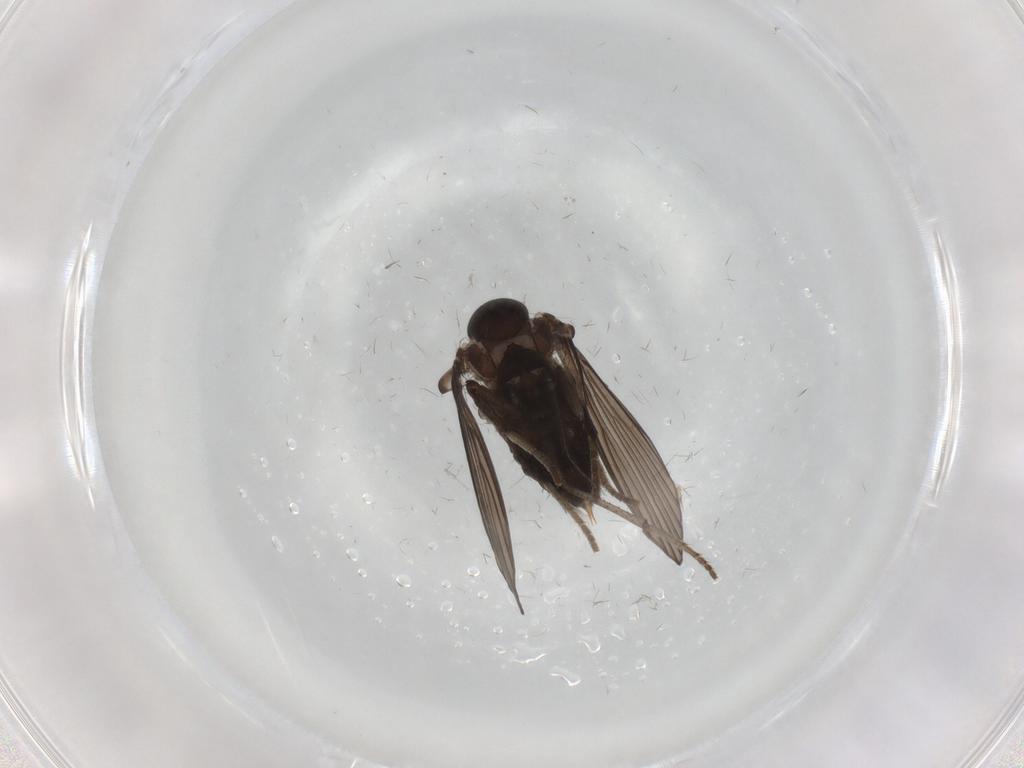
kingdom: Animalia
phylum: Arthropoda
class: Insecta
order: Diptera
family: Psychodidae
